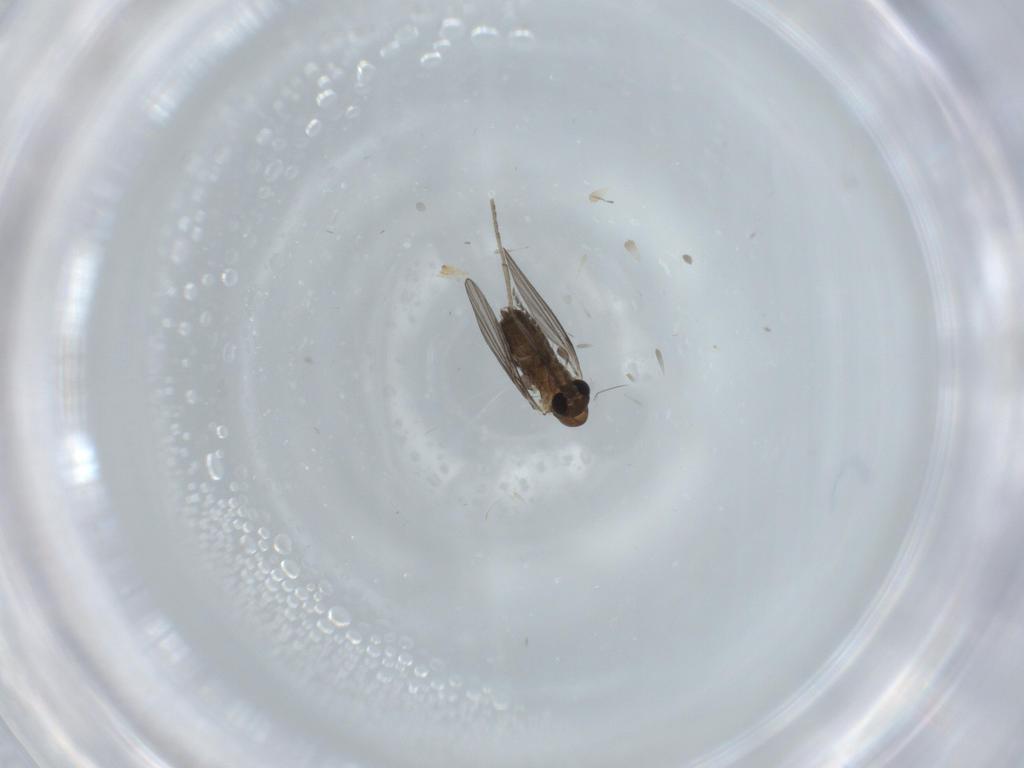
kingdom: Animalia
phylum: Arthropoda
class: Insecta
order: Diptera
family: Psychodidae
